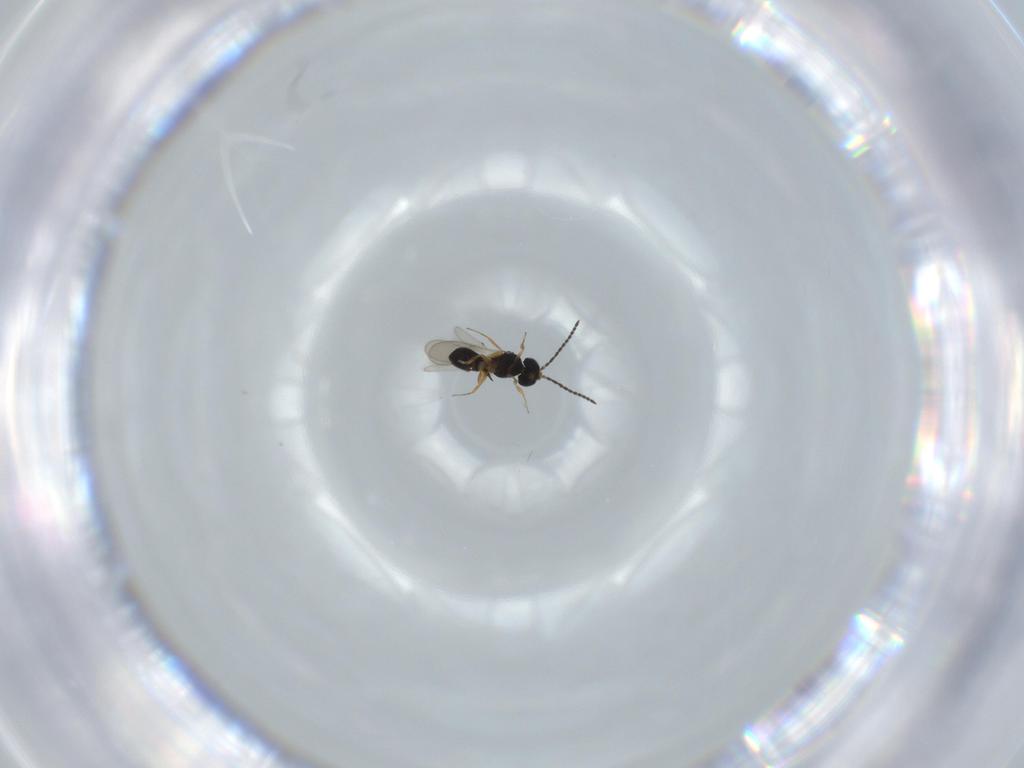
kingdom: Animalia
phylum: Arthropoda
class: Insecta
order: Hymenoptera
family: Scelionidae
